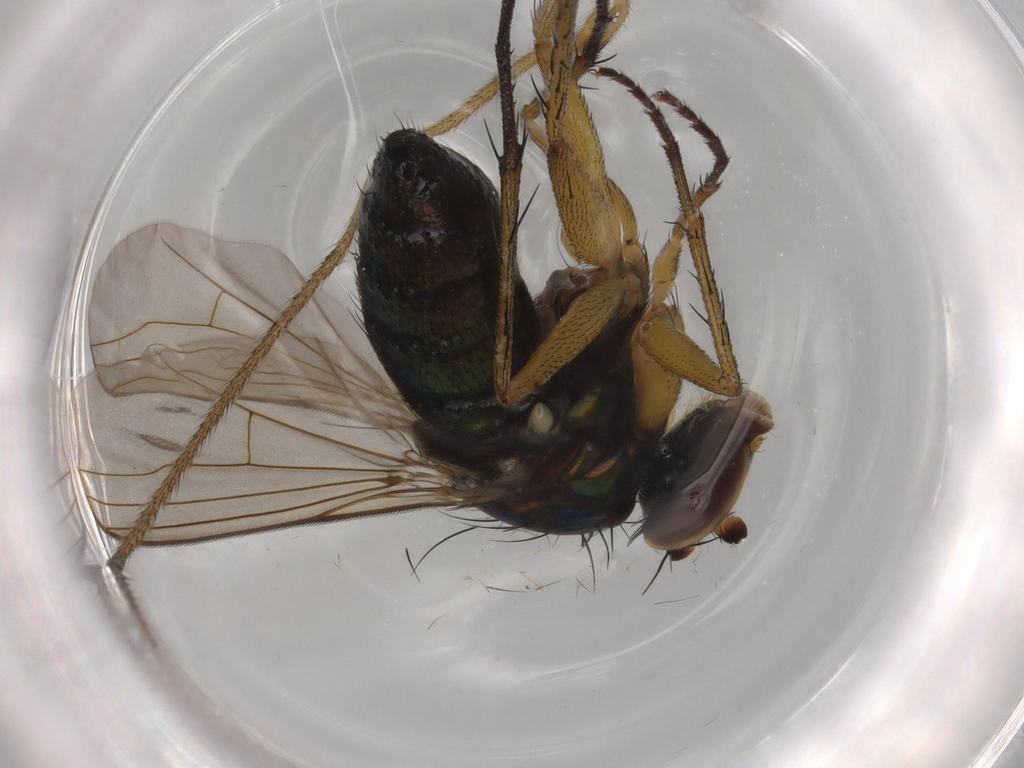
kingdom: Animalia
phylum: Arthropoda
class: Insecta
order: Diptera
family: Dolichopodidae
